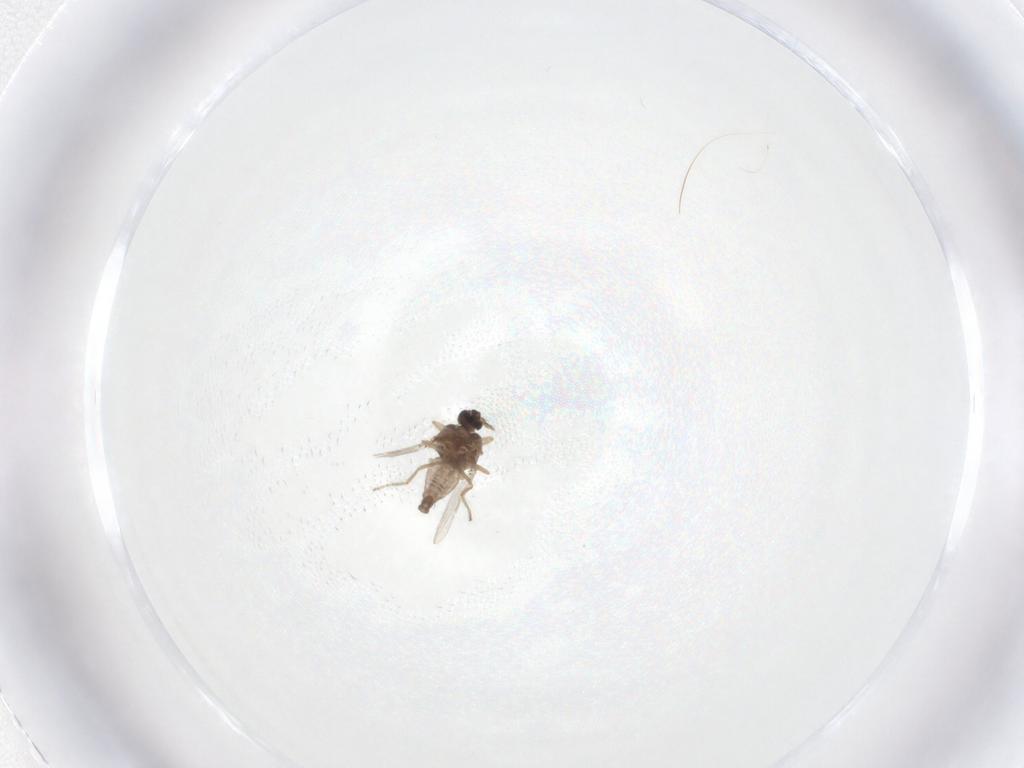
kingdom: Animalia
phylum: Arthropoda
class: Insecta
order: Diptera
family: Ceratopogonidae
